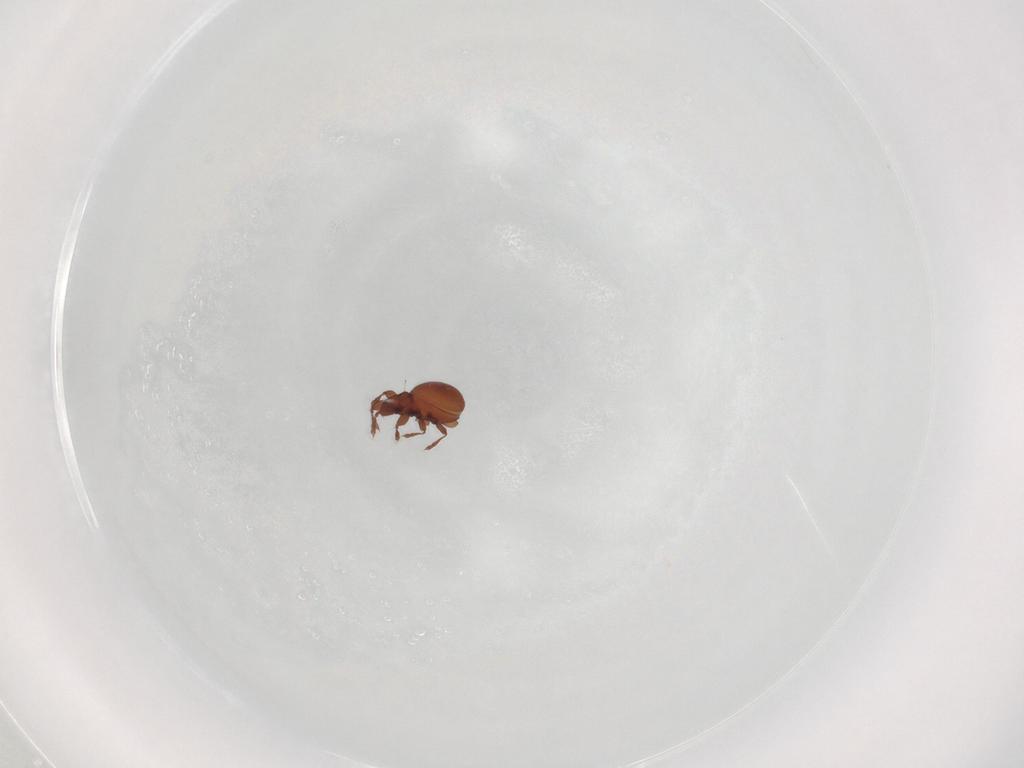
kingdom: Animalia
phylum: Arthropoda
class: Arachnida
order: Sarcoptiformes
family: Eremaeidae
